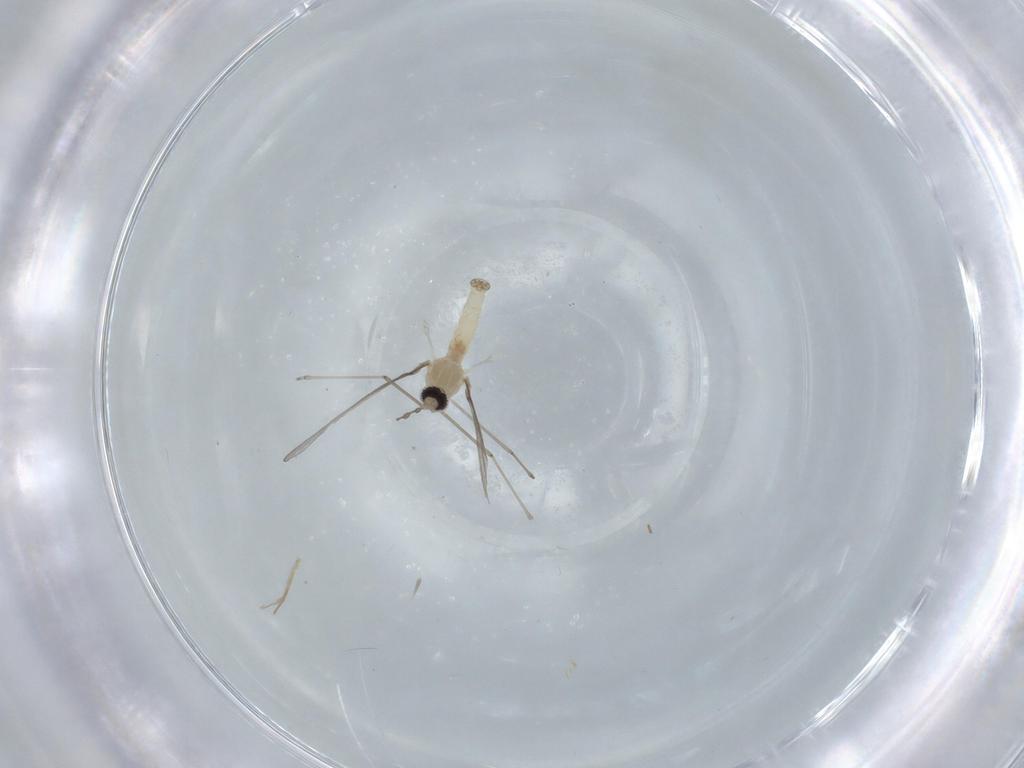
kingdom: Animalia
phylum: Arthropoda
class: Insecta
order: Diptera
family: Cecidomyiidae
